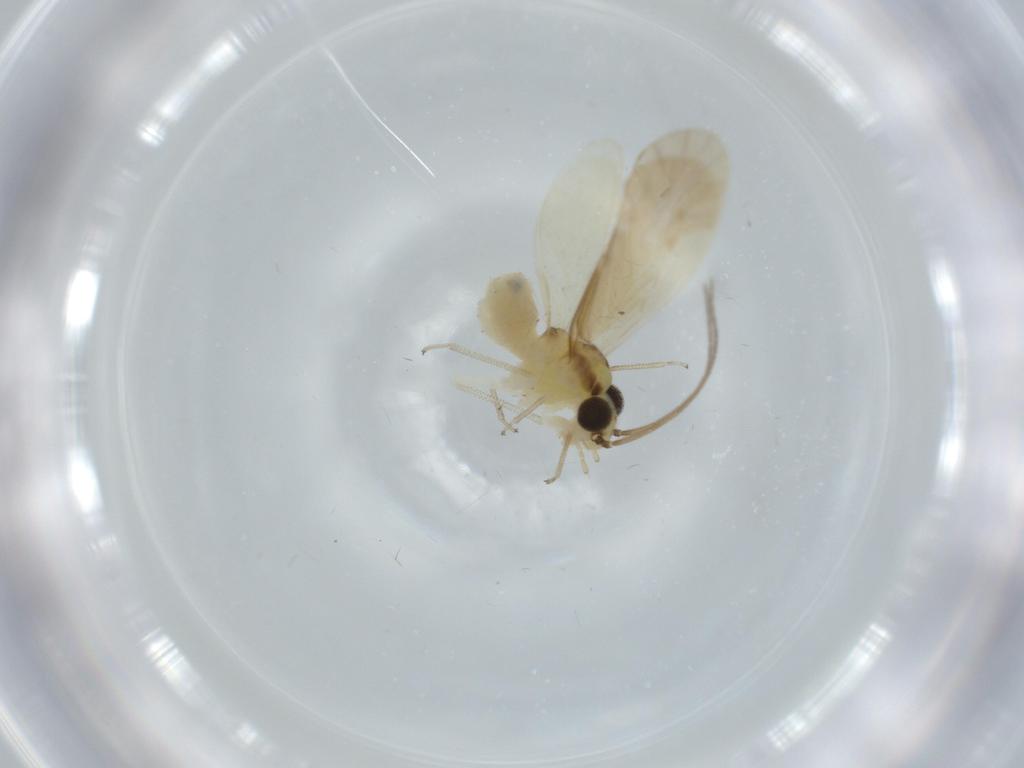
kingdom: Animalia
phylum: Arthropoda
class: Insecta
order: Psocodea
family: Caeciliusidae
